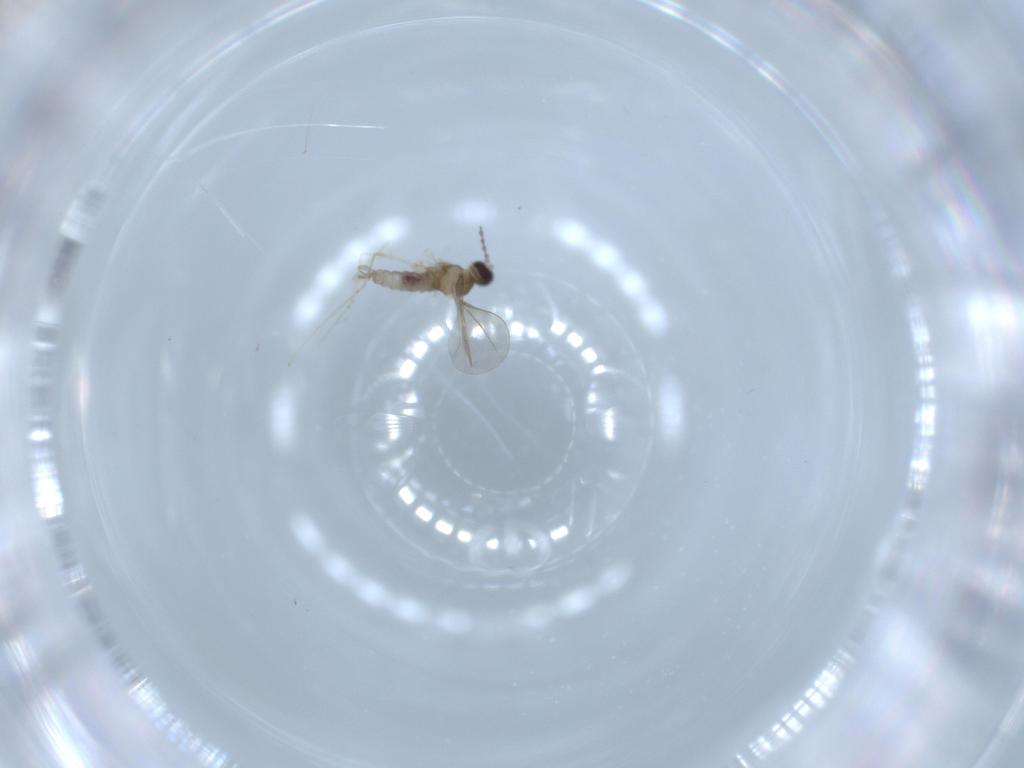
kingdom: Animalia
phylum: Arthropoda
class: Insecta
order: Diptera
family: Cecidomyiidae
